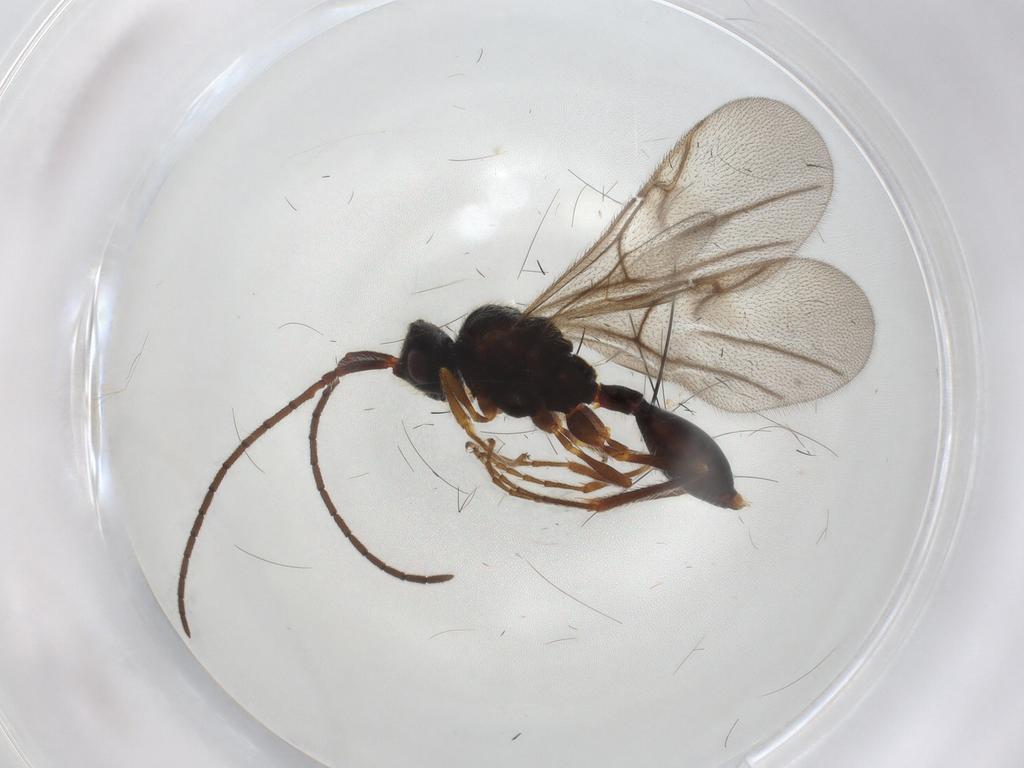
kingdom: Animalia
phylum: Arthropoda
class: Insecta
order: Hymenoptera
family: Diapriidae
